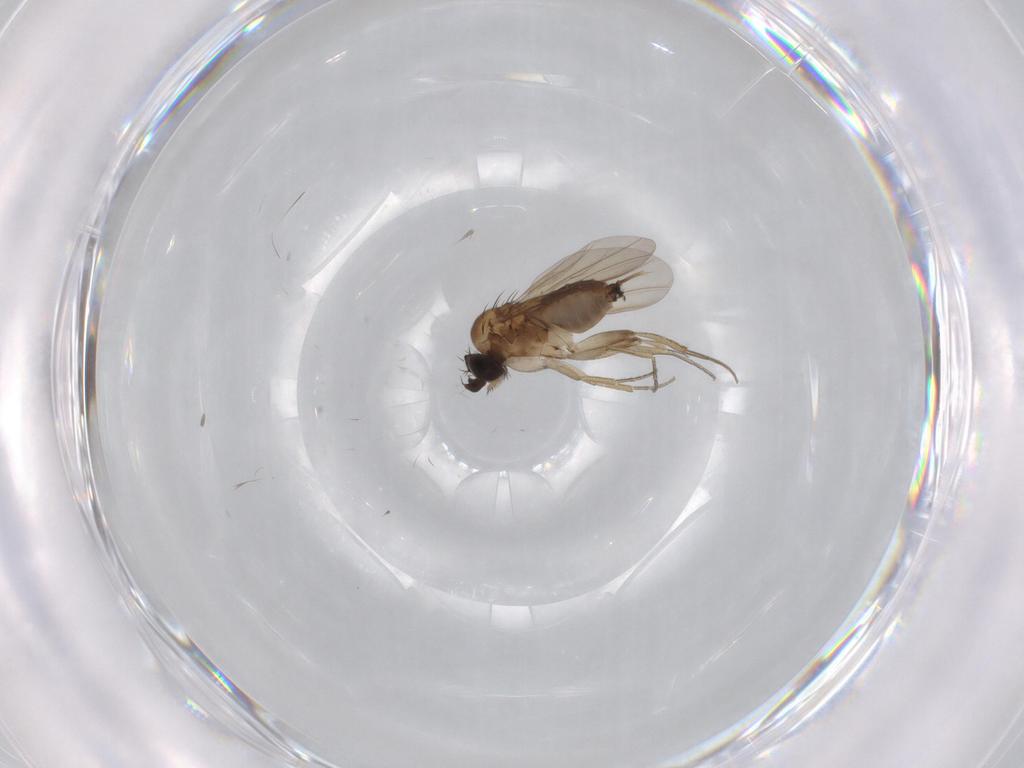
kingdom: Animalia
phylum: Arthropoda
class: Insecta
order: Diptera
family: Phoridae
